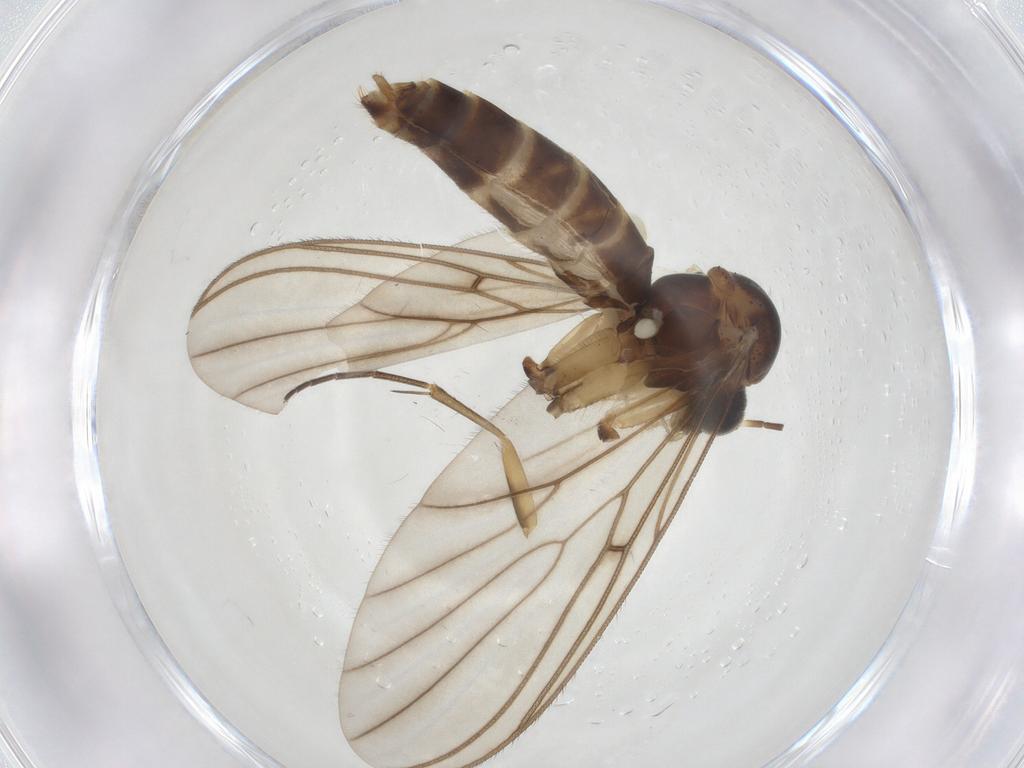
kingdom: Animalia
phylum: Arthropoda
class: Insecta
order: Diptera
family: Mycetophilidae
